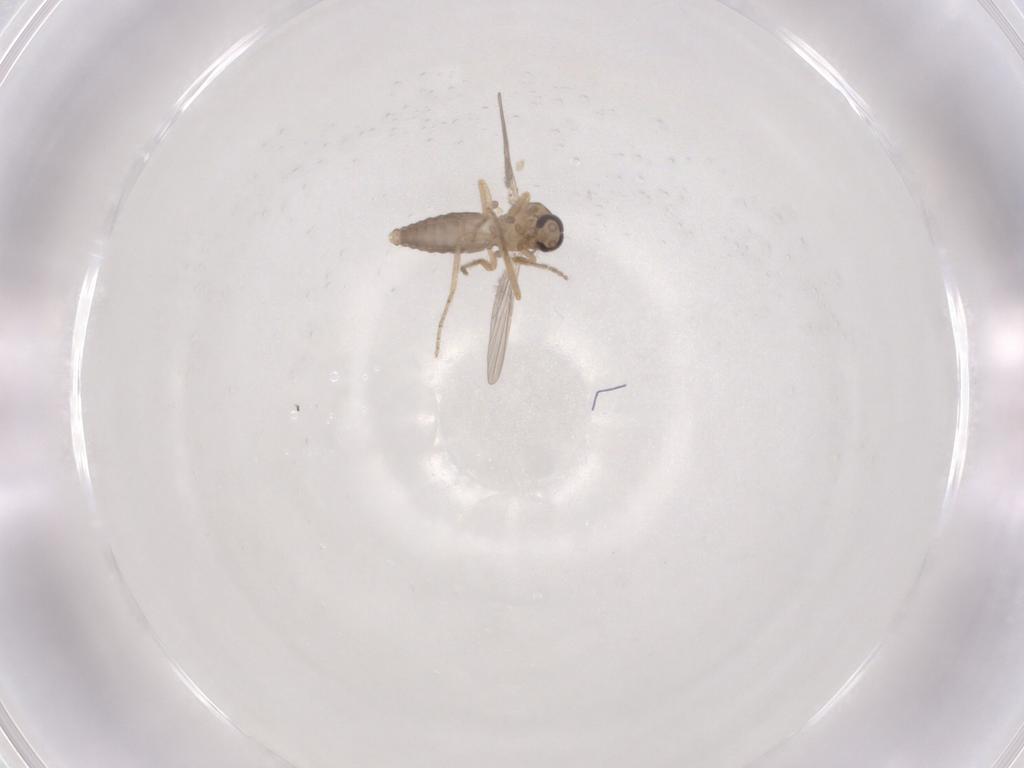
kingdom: Animalia
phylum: Arthropoda
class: Insecta
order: Diptera
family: Ceratopogonidae
